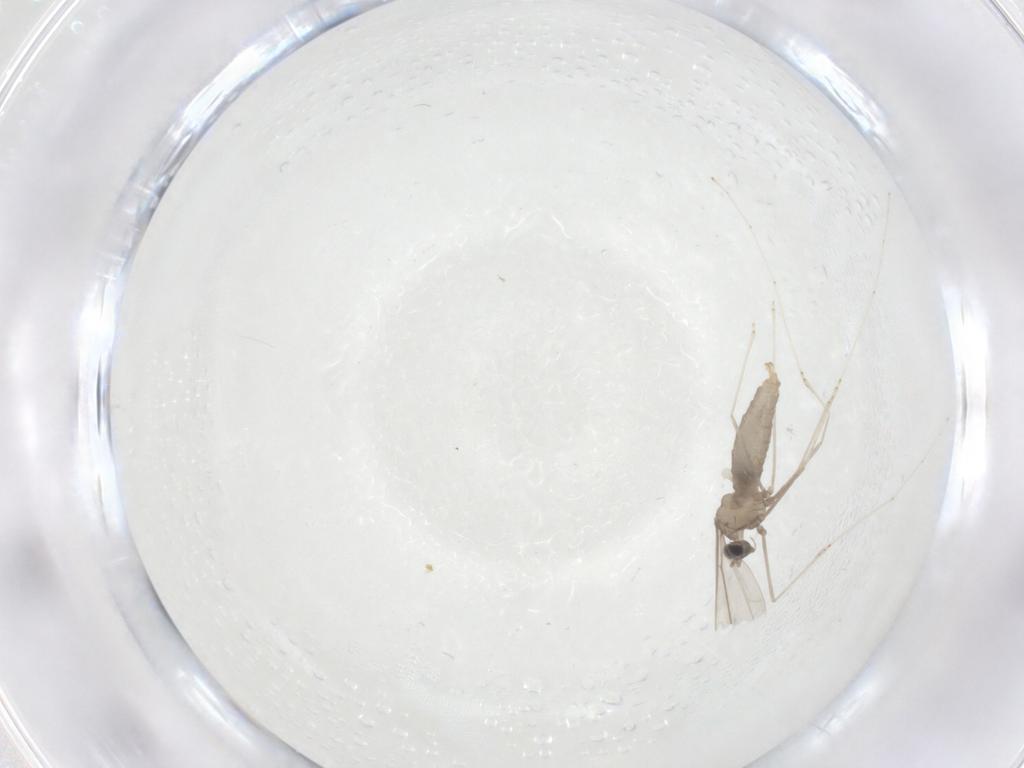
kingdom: Animalia
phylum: Arthropoda
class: Insecta
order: Diptera
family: Cecidomyiidae
